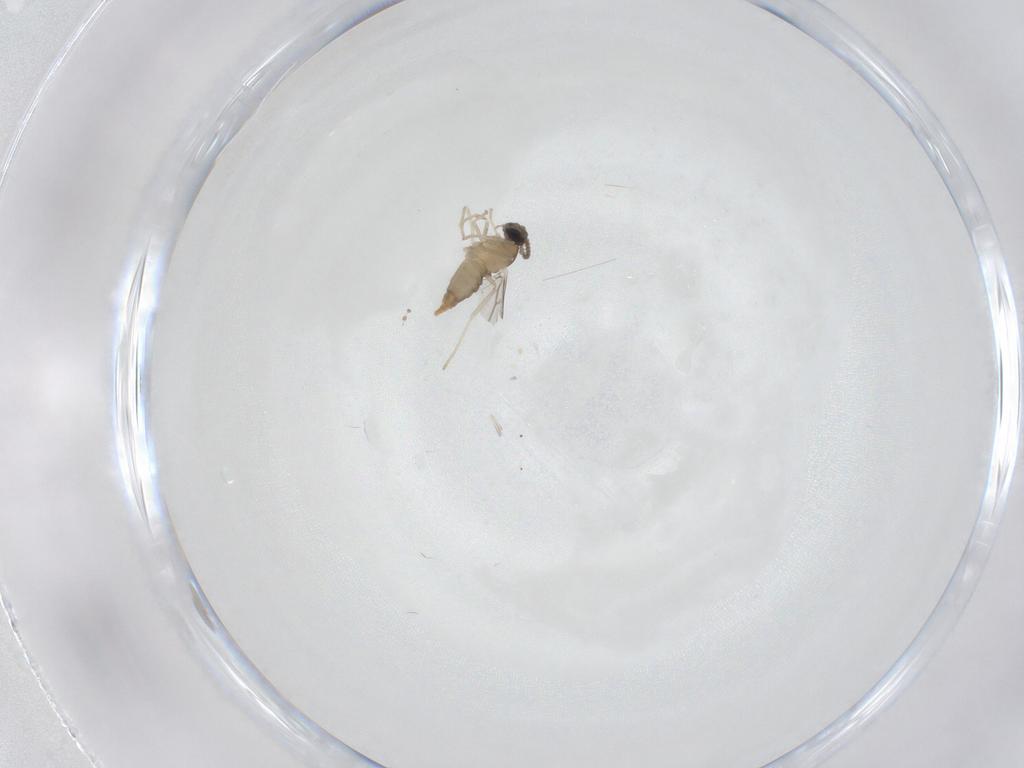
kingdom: Animalia
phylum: Arthropoda
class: Insecta
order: Diptera
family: Cecidomyiidae
